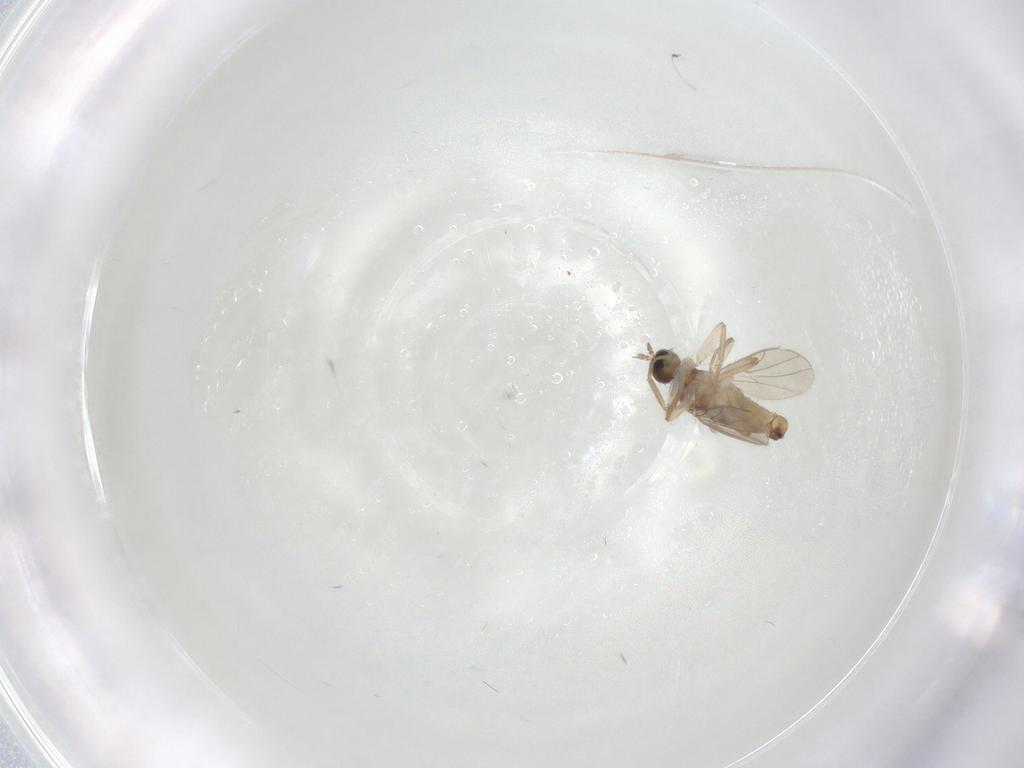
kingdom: Animalia
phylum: Arthropoda
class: Insecta
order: Diptera
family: Hybotidae
